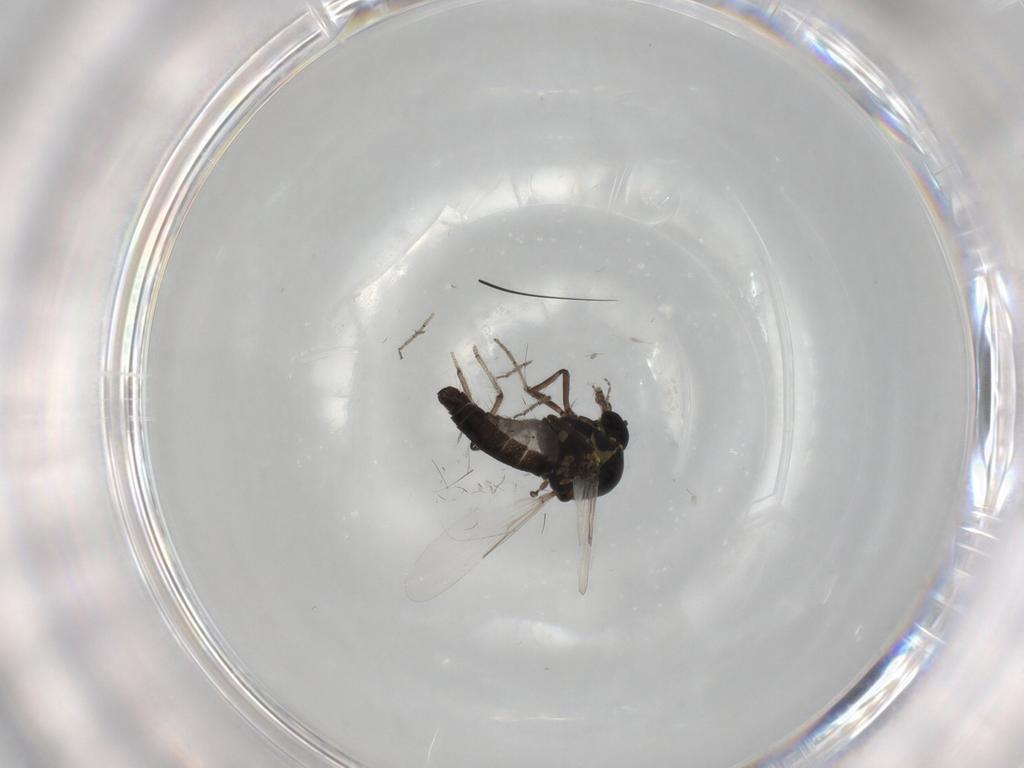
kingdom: Animalia
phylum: Arthropoda
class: Insecta
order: Diptera
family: Ceratopogonidae
